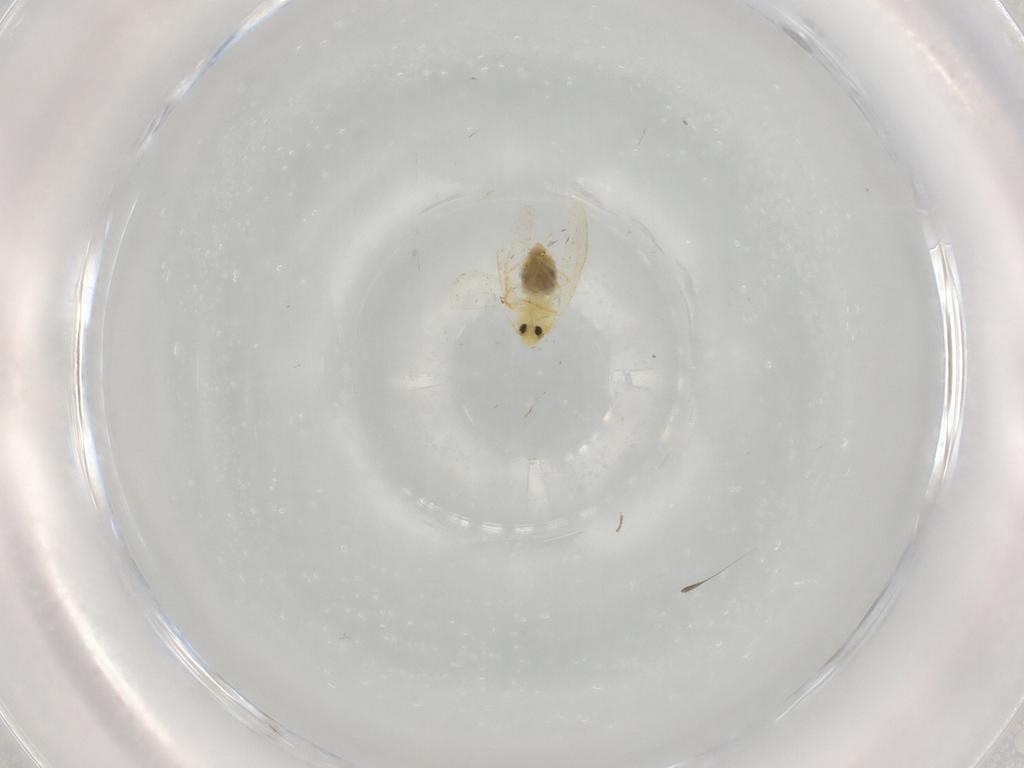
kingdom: Animalia
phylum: Arthropoda
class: Insecta
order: Hemiptera
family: Aleyrodidae
